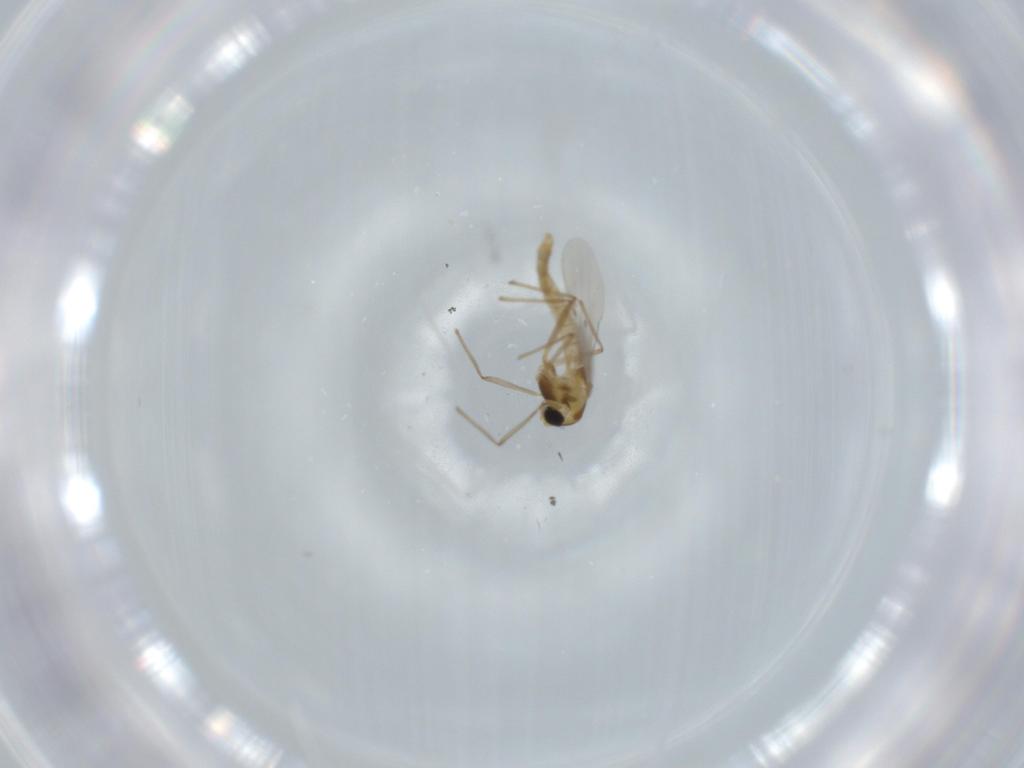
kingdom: Animalia
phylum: Arthropoda
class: Insecta
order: Diptera
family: Chironomidae
